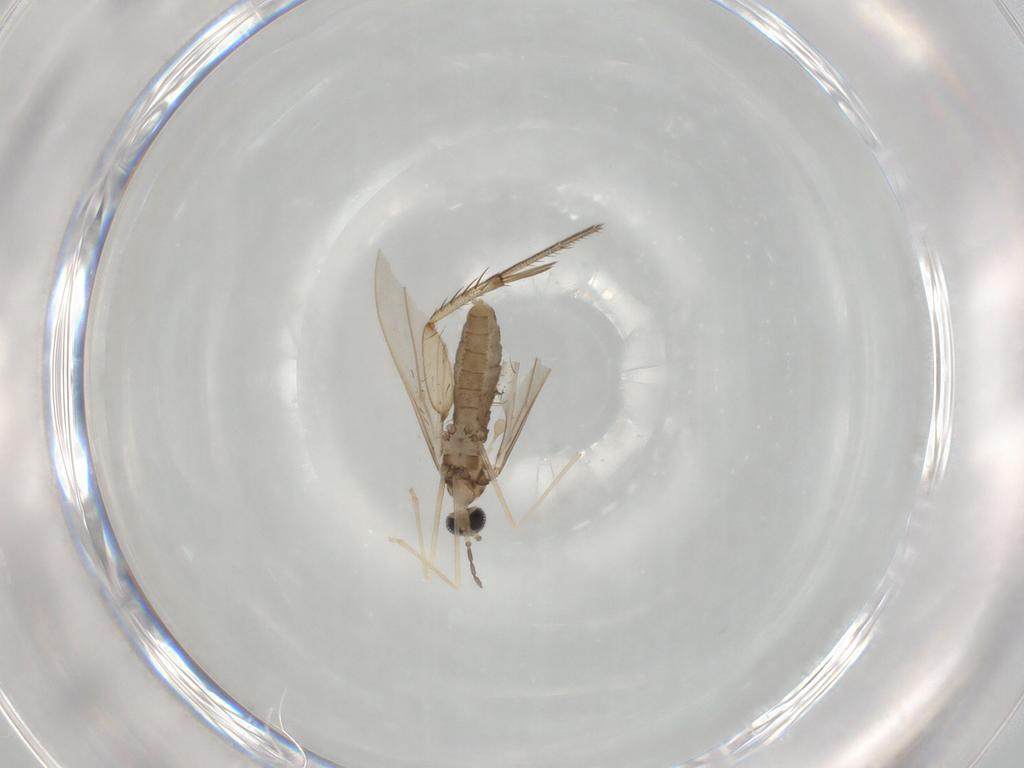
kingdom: Animalia
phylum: Arthropoda
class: Insecta
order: Diptera
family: Cecidomyiidae
